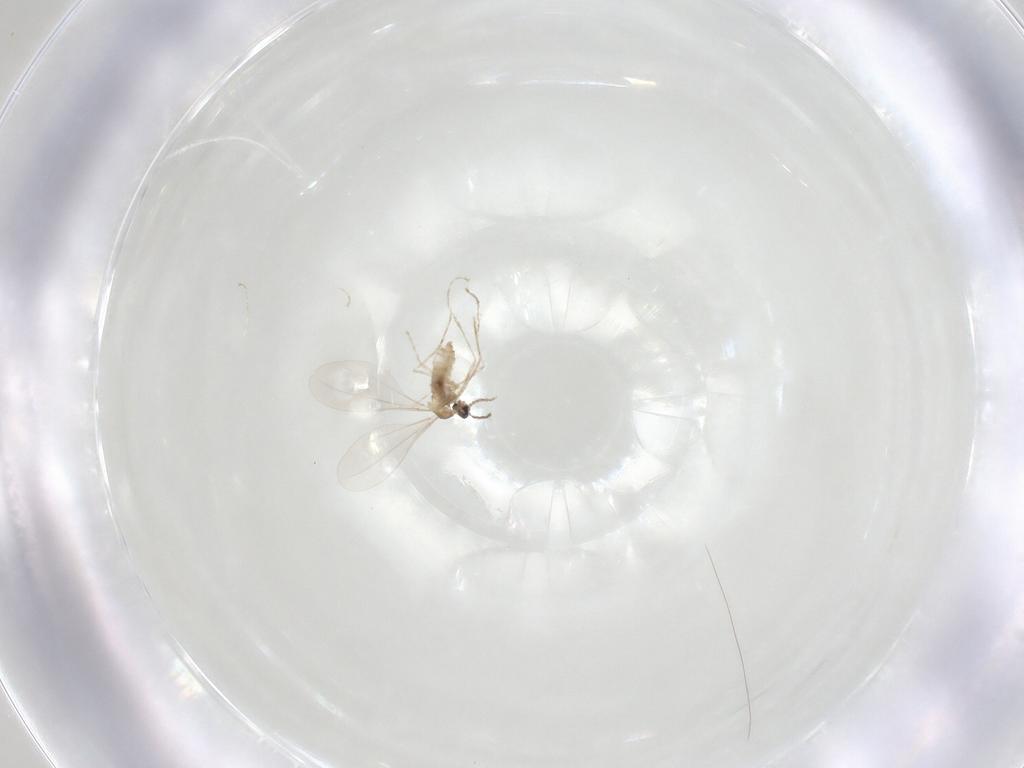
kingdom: Animalia
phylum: Arthropoda
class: Insecta
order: Diptera
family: Cecidomyiidae
